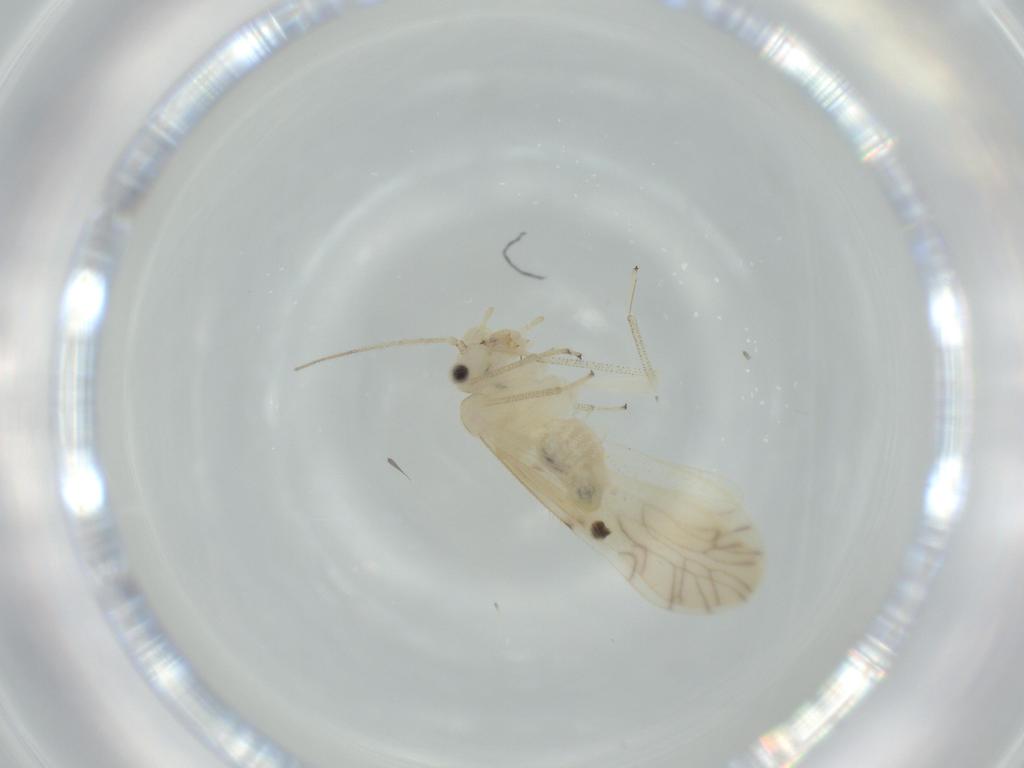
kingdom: Animalia
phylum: Arthropoda
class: Insecta
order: Psocodea
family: Caeciliusidae
